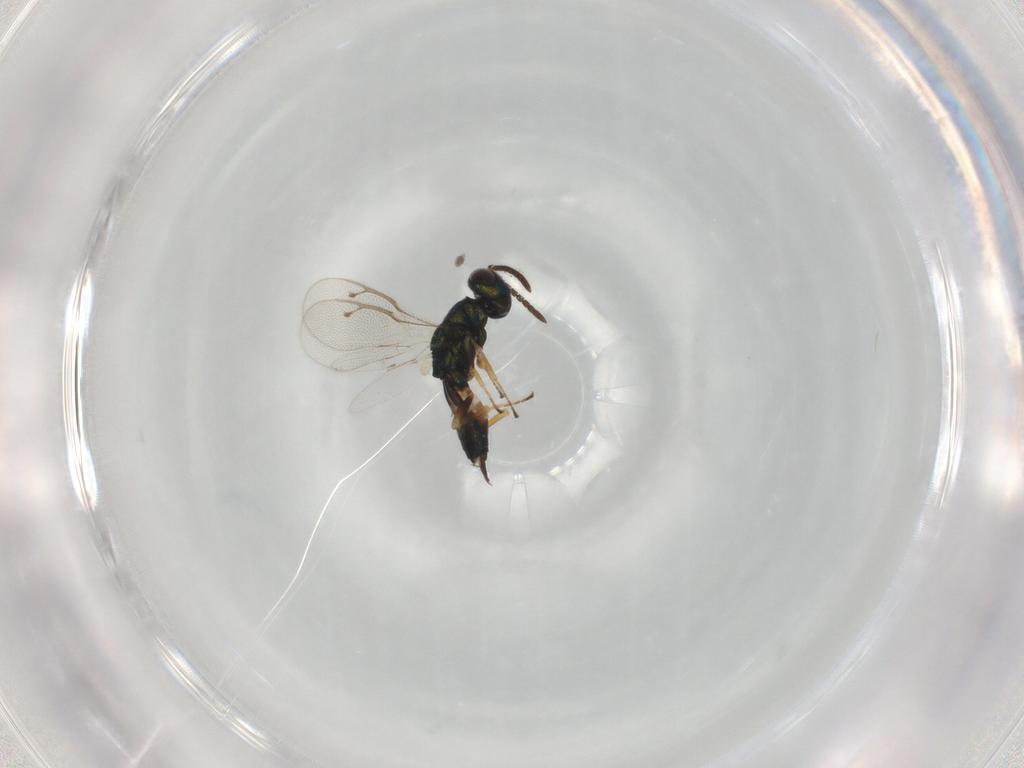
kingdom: Animalia
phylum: Arthropoda
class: Insecta
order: Hymenoptera
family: Pteromalidae
